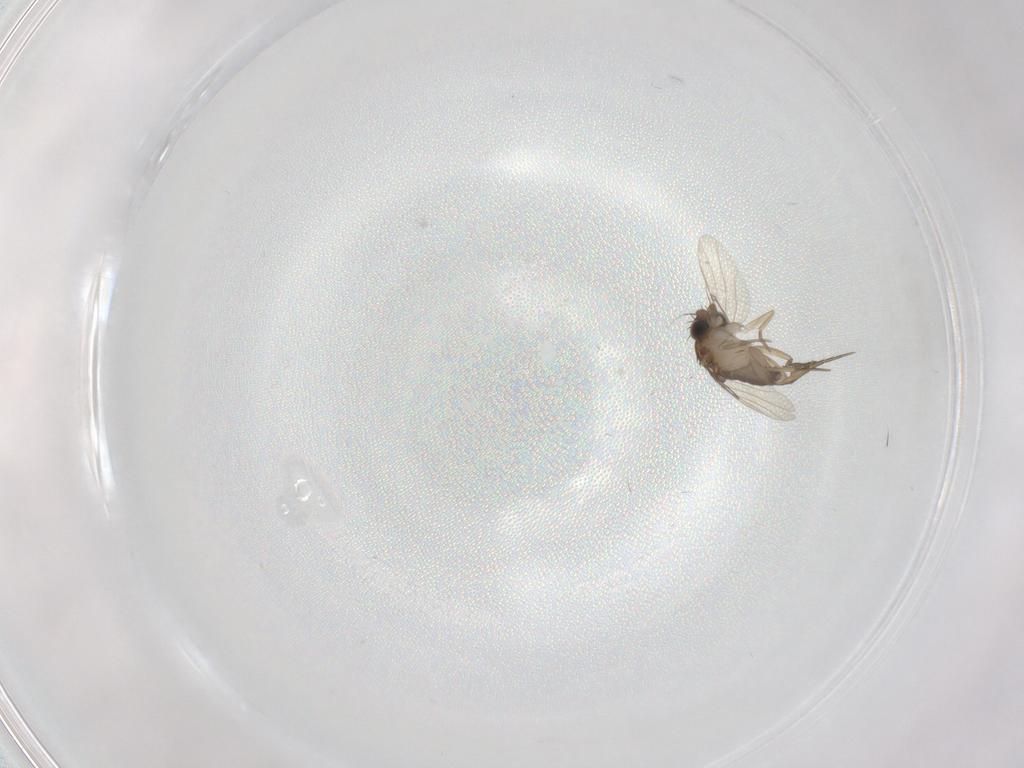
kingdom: Animalia
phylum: Arthropoda
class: Insecta
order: Diptera
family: Phoridae
